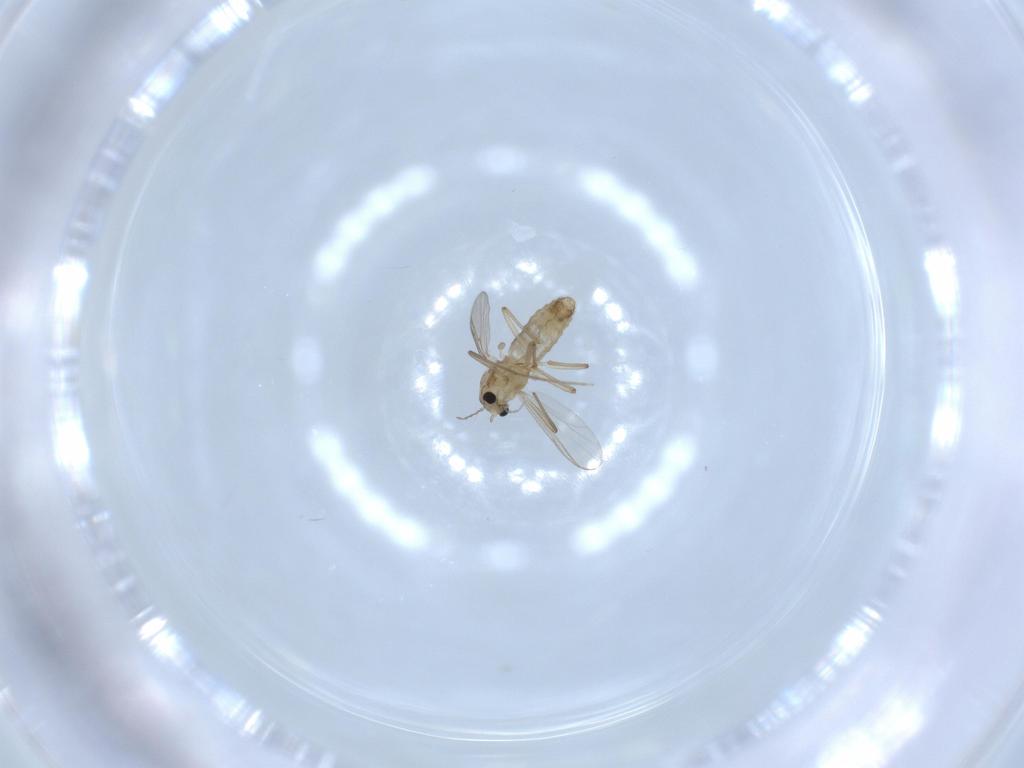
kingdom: Animalia
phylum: Arthropoda
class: Insecta
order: Diptera
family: Chironomidae
